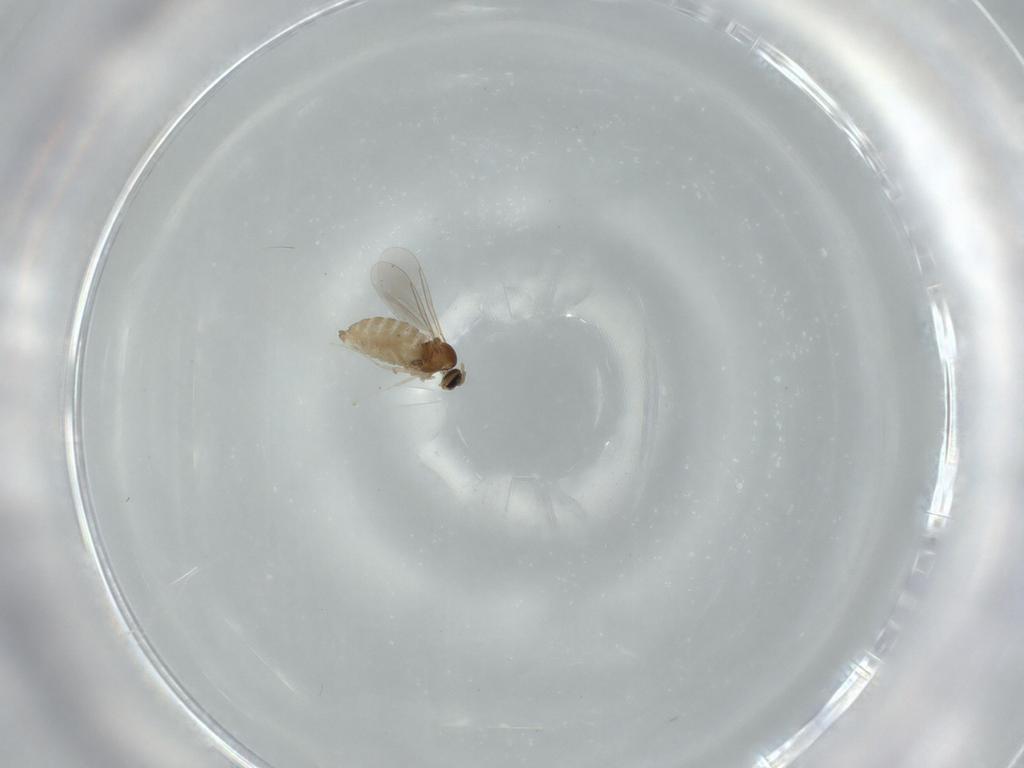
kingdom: Animalia
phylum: Arthropoda
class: Insecta
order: Diptera
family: Cecidomyiidae
